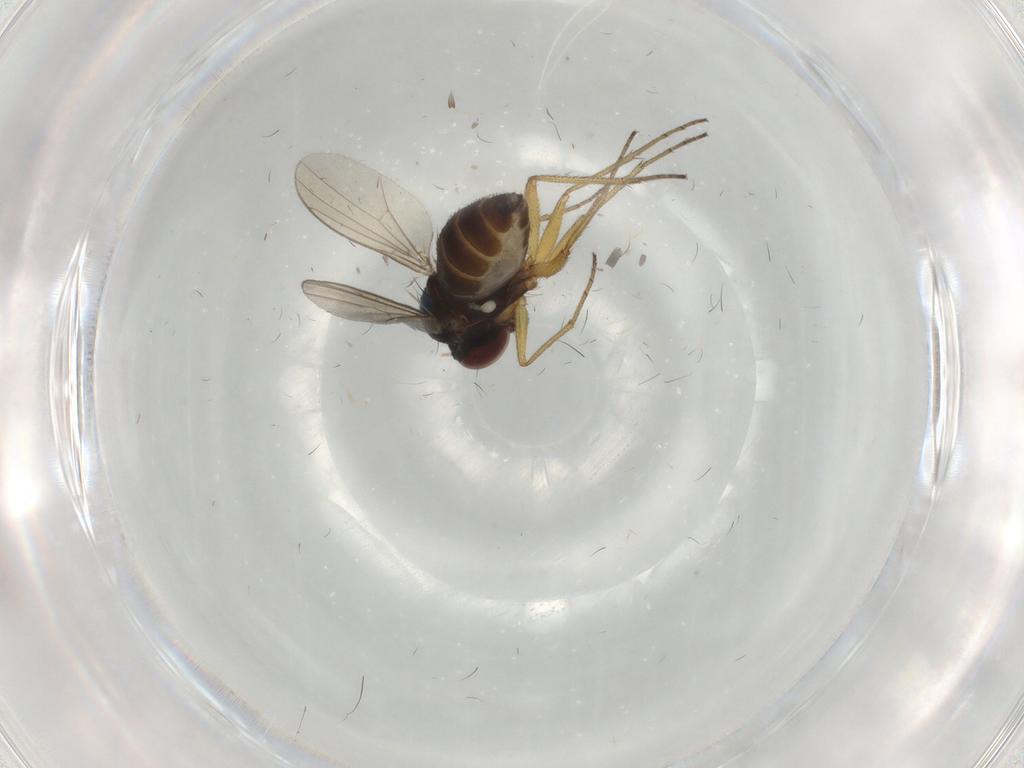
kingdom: Animalia
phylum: Arthropoda
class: Insecta
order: Diptera
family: Dolichopodidae
